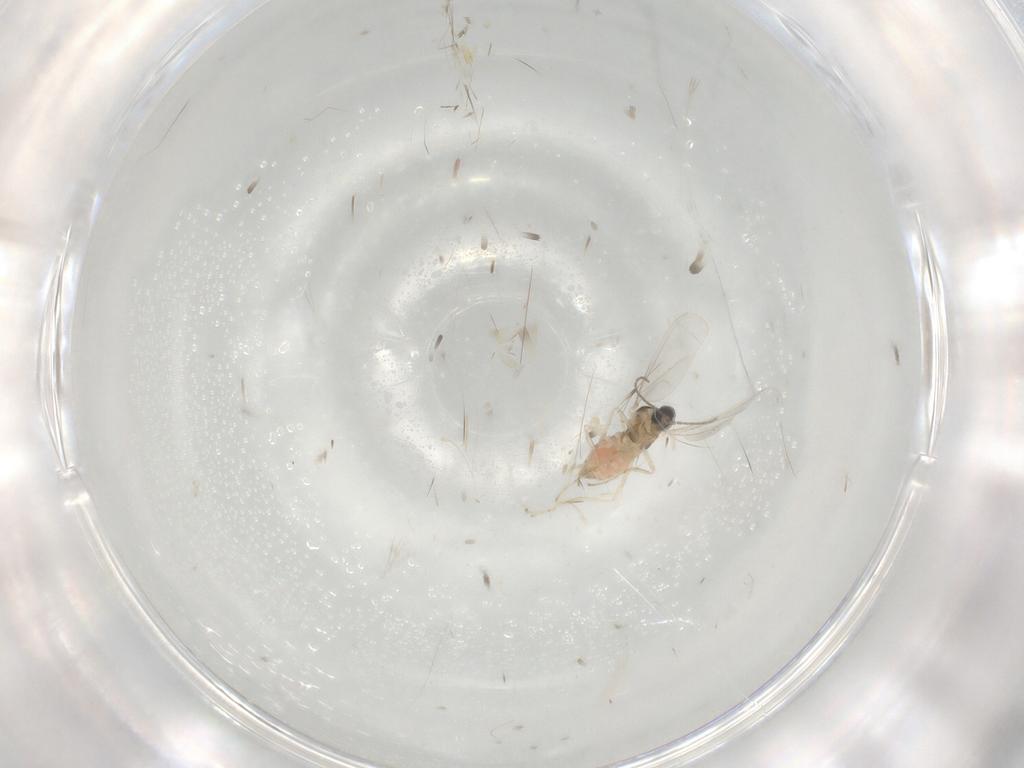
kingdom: Animalia
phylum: Arthropoda
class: Insecta
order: Diptera
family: Cecidomyiidae
